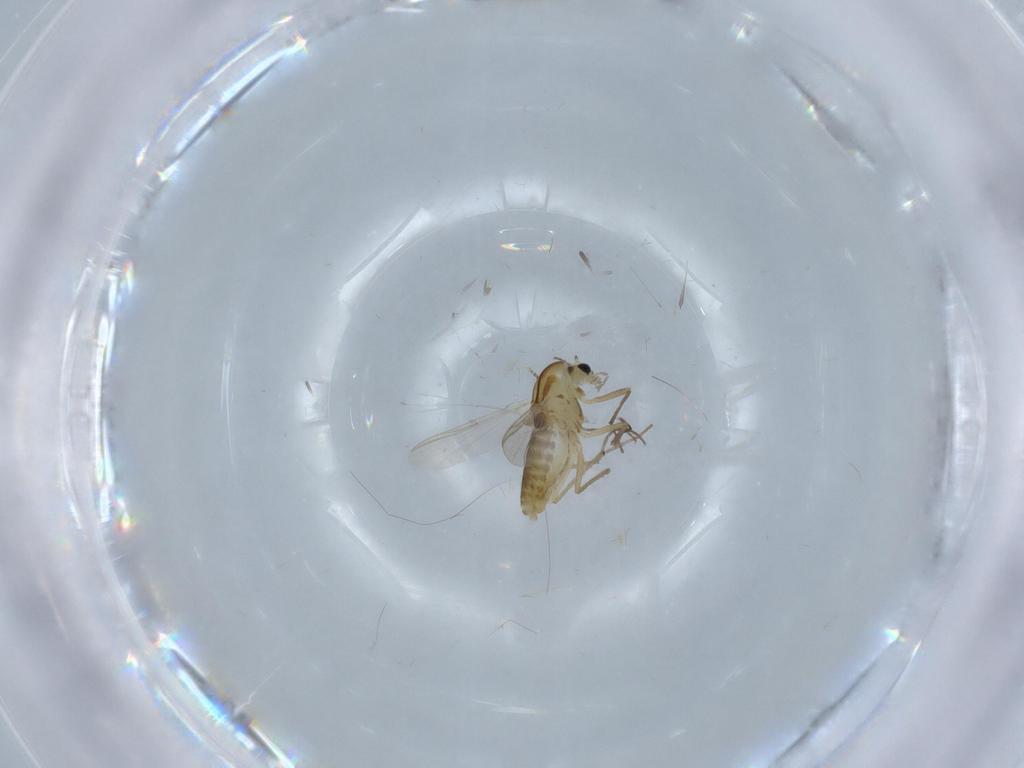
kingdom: Animalia
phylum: Arthropoda
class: Insecta
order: Diptera
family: Chironomidae
